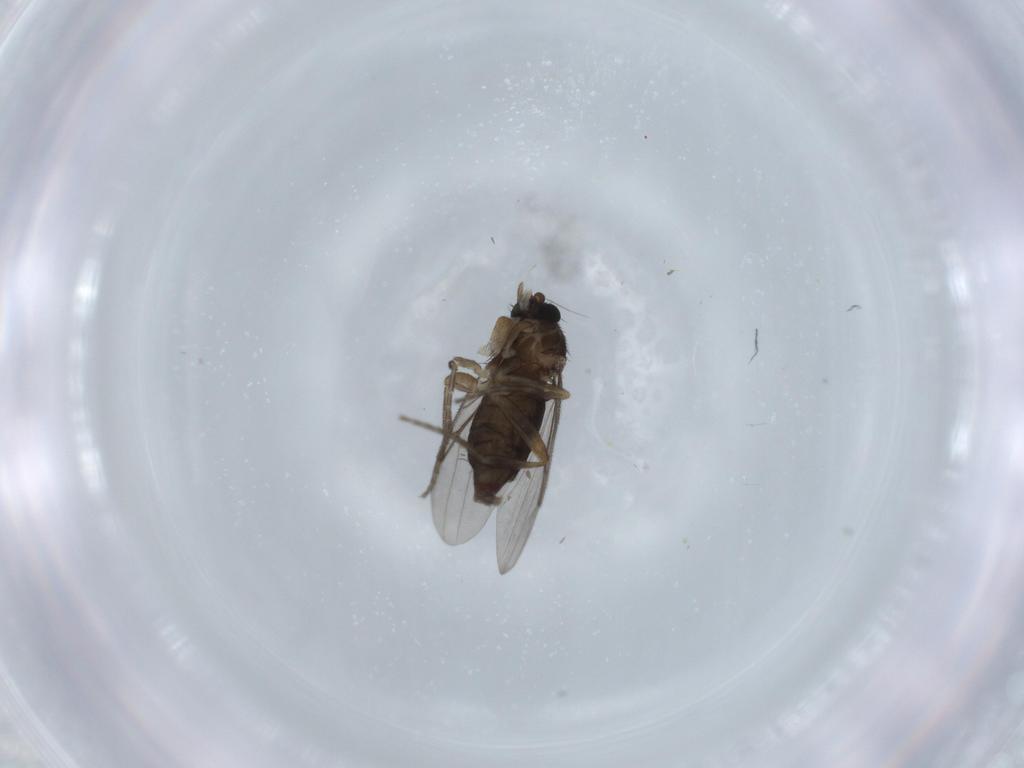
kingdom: Animalia
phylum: Arthropoda
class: Insecta
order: Diptera
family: Phoridae
